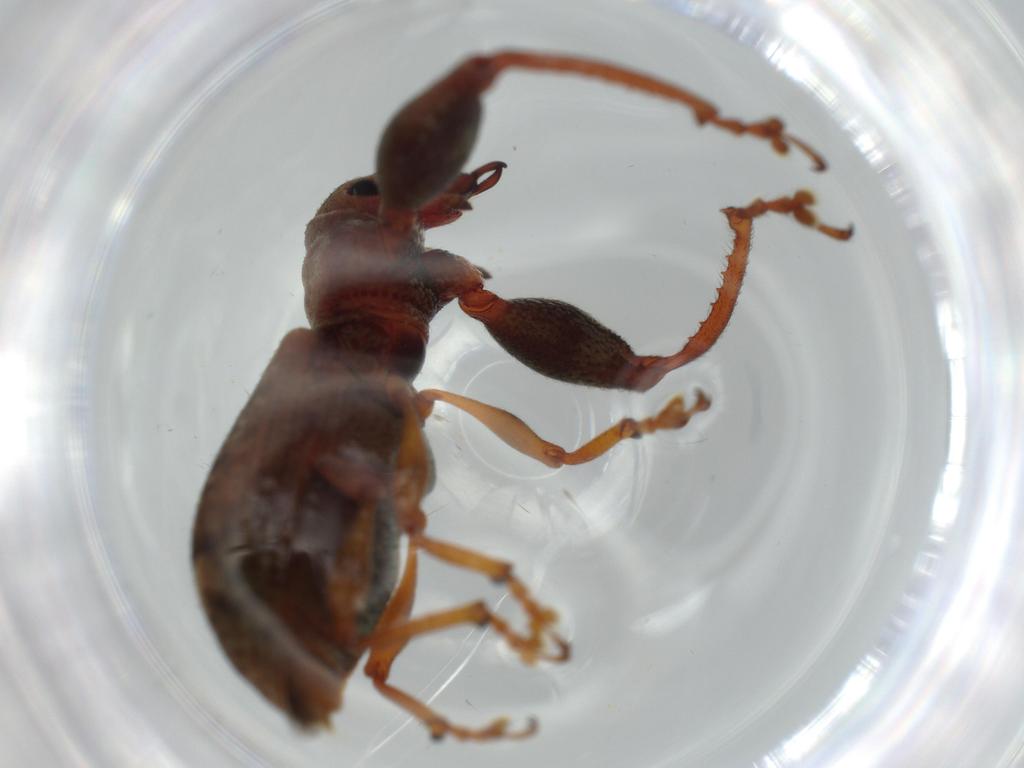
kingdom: Animalia
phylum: Arthropoda
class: Insecta
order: Coleoptera
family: Curculionidae
